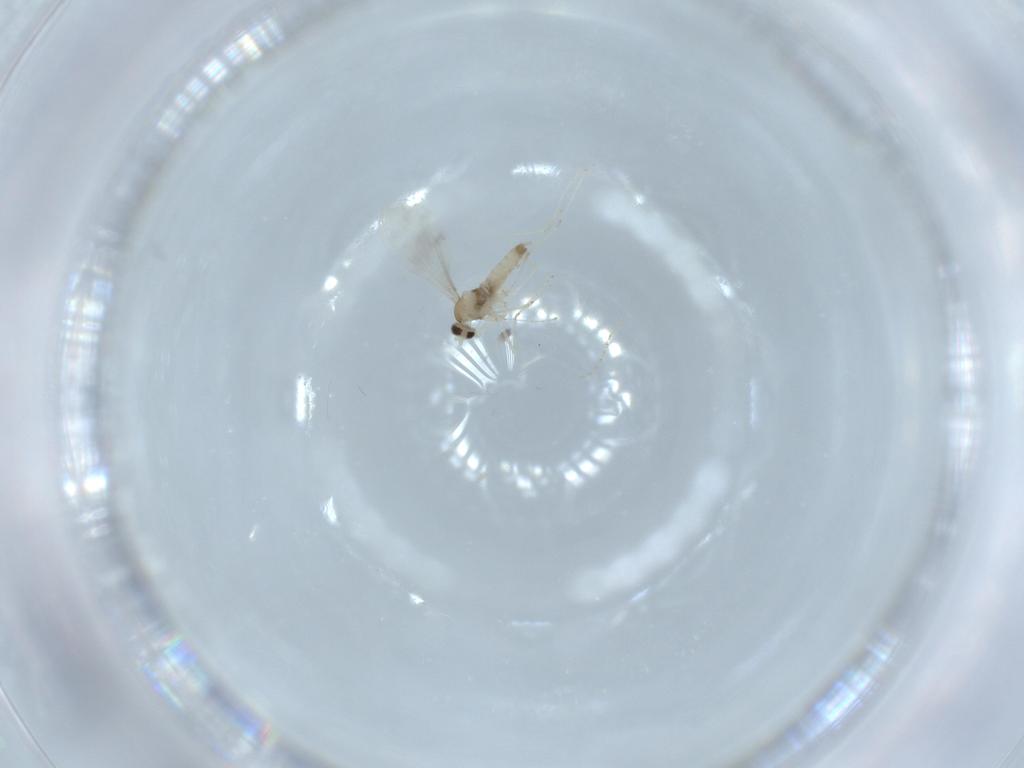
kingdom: Animalia
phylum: Arthropoda
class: Insecta
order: Diptera
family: Cecidomyiidae
